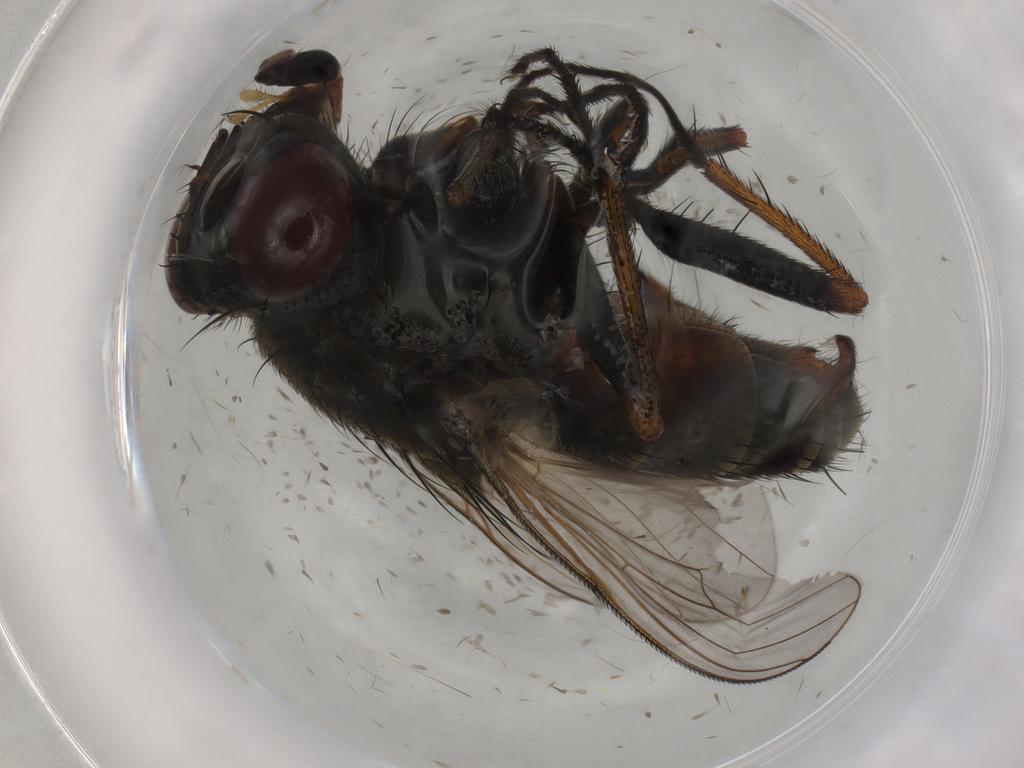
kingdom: Animalia
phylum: Arthropoda
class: Insecta
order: Diptera
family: Muscidae
